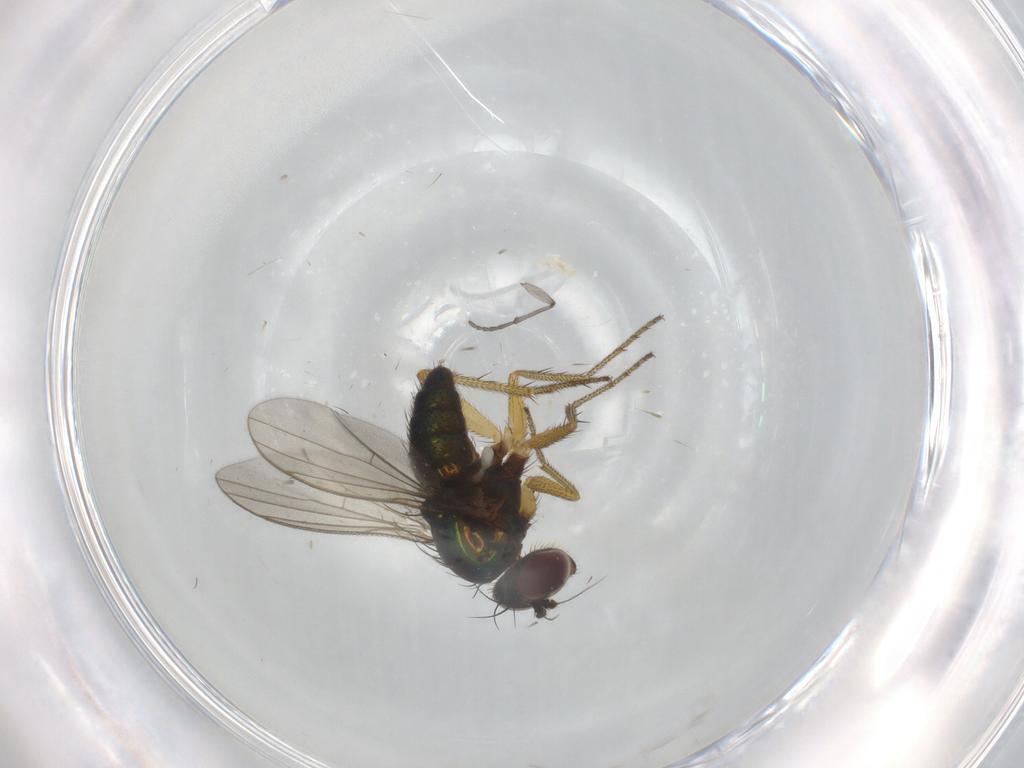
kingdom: Animalia
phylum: Arthropoda
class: Insecta
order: Diptera
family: Sciaridae
